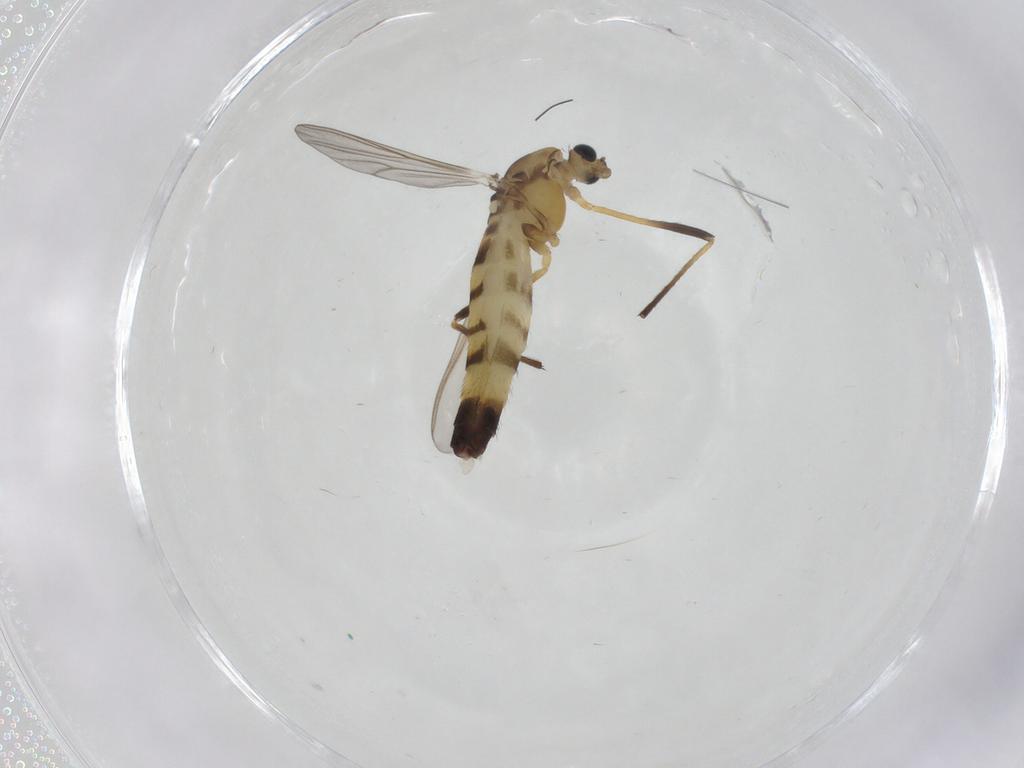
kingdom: Animalia
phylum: Arthropoda
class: Insecta
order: Diptera
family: Chironomidae
